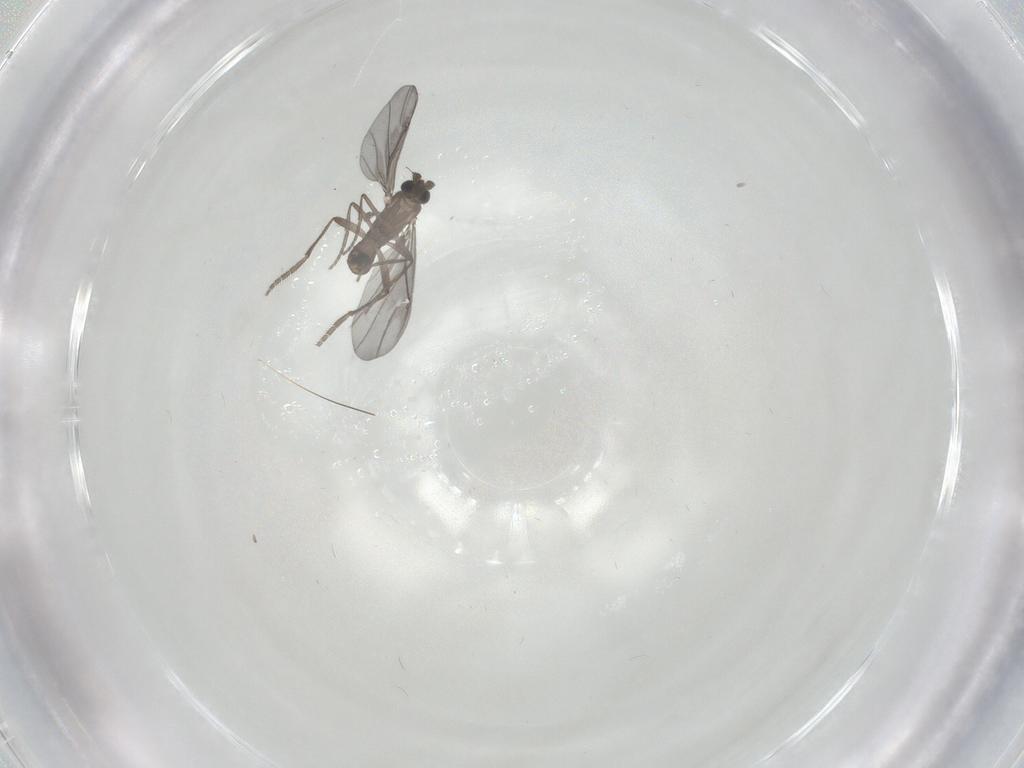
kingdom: Animalia
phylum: Arthropoda
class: Insecta
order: Diptera
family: Phoridae
